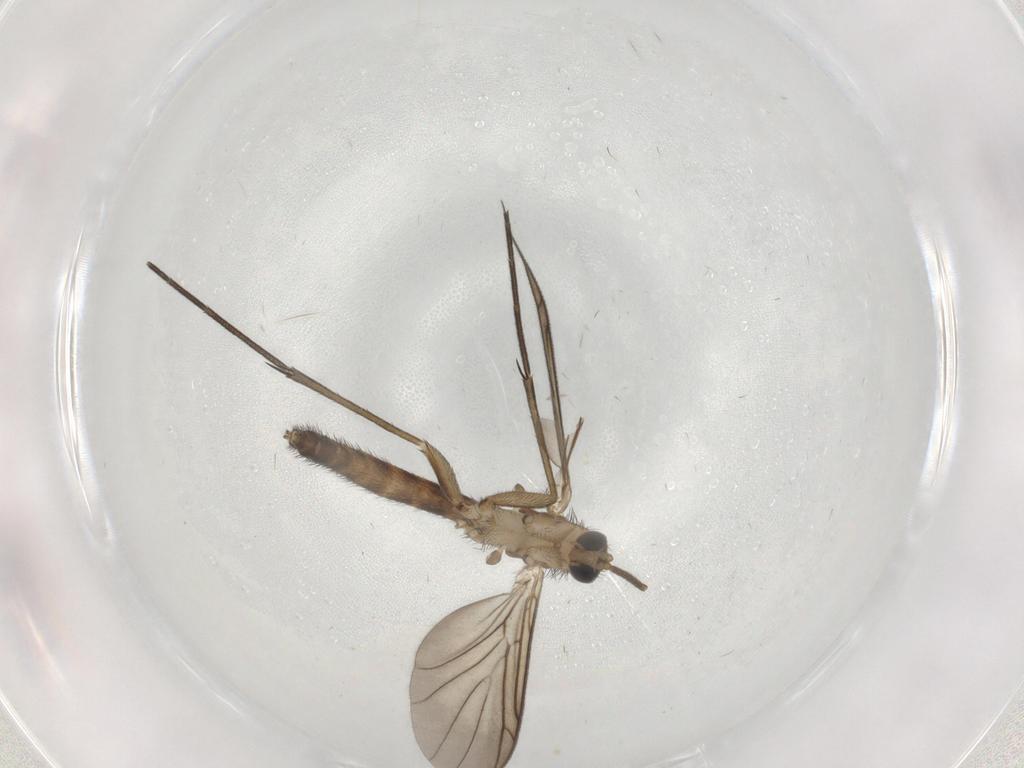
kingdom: Animalia
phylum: Arthropoda
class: Insecta
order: Diptera
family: Keroplatidae
